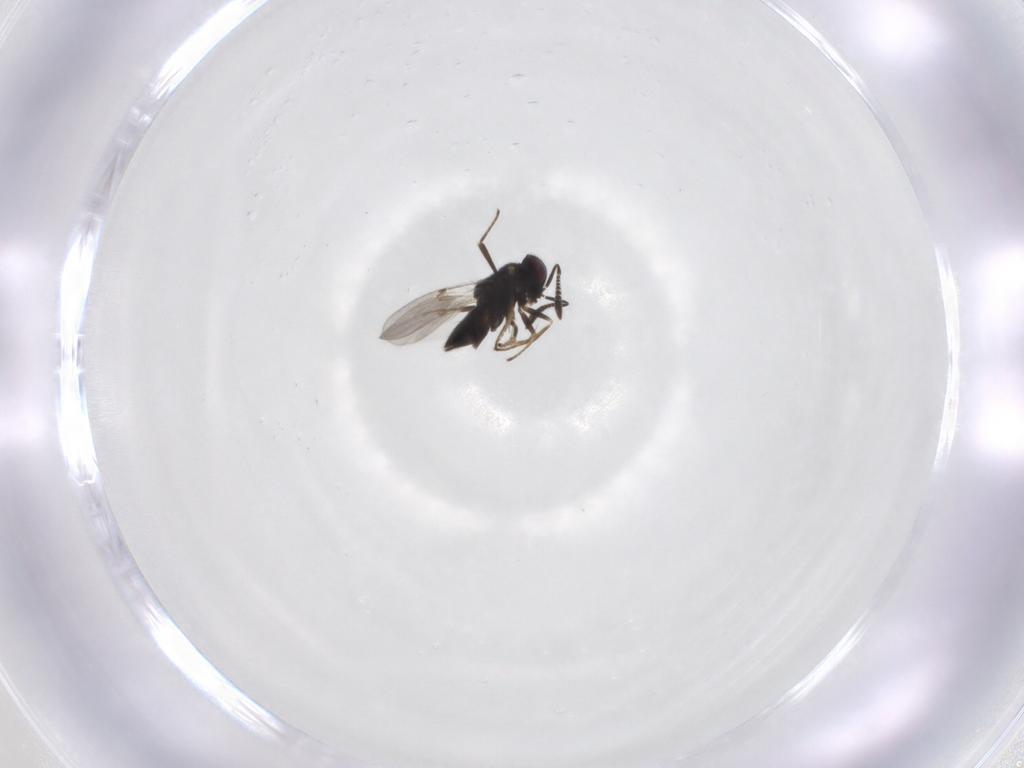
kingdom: Animalia
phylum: Arthropoda
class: Insecta
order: Hymenoptera
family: Encyrtidae
